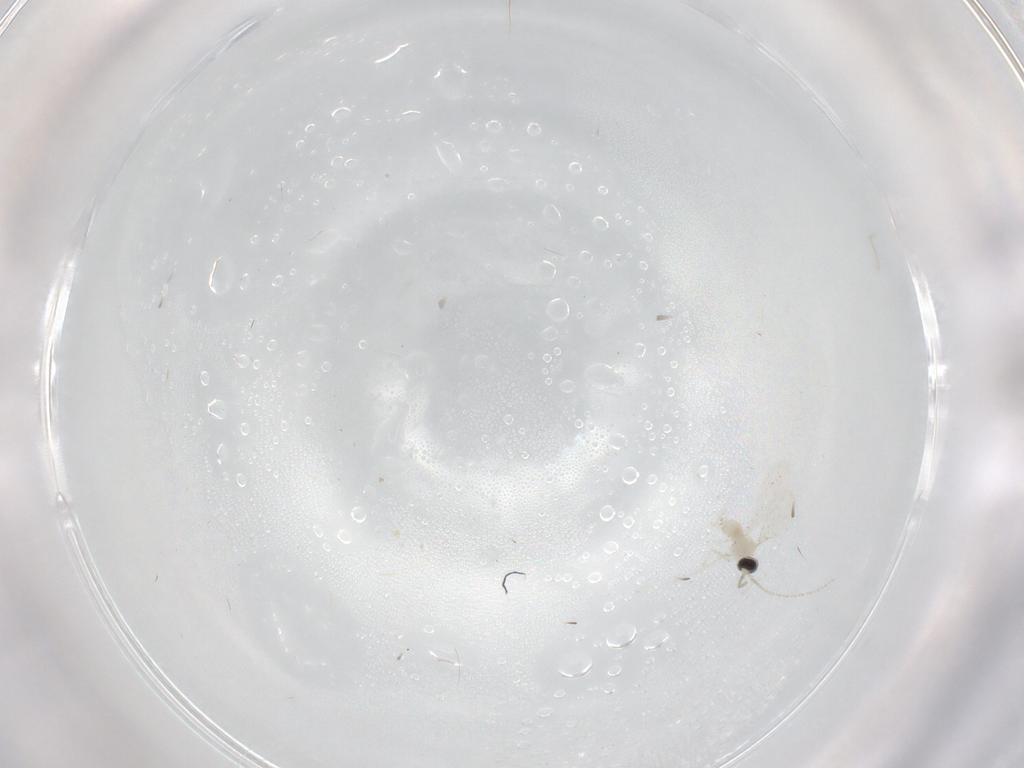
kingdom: Animalia
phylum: Arthropoda
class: Insecta
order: Diptera
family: Cecidomyiidae
